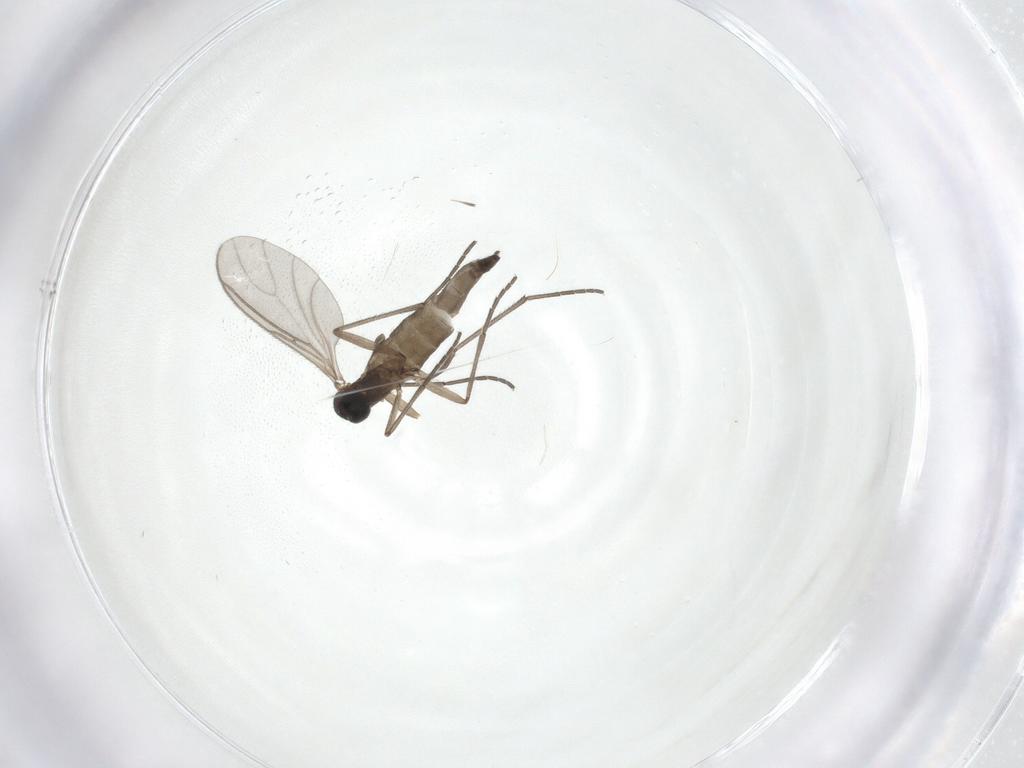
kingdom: Animalia
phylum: Arthropoda
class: Insecta
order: Diptera
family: Sciaridae
